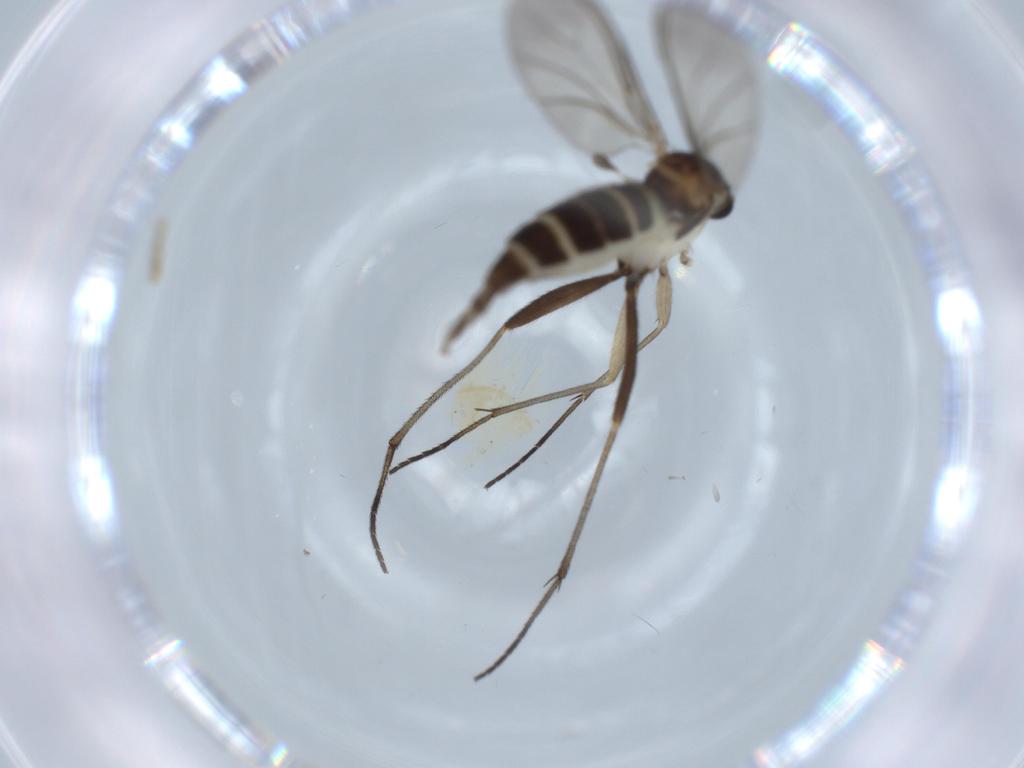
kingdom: Animalia
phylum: Arthropoda
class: Insecta
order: Diptera
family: Sciaridae
